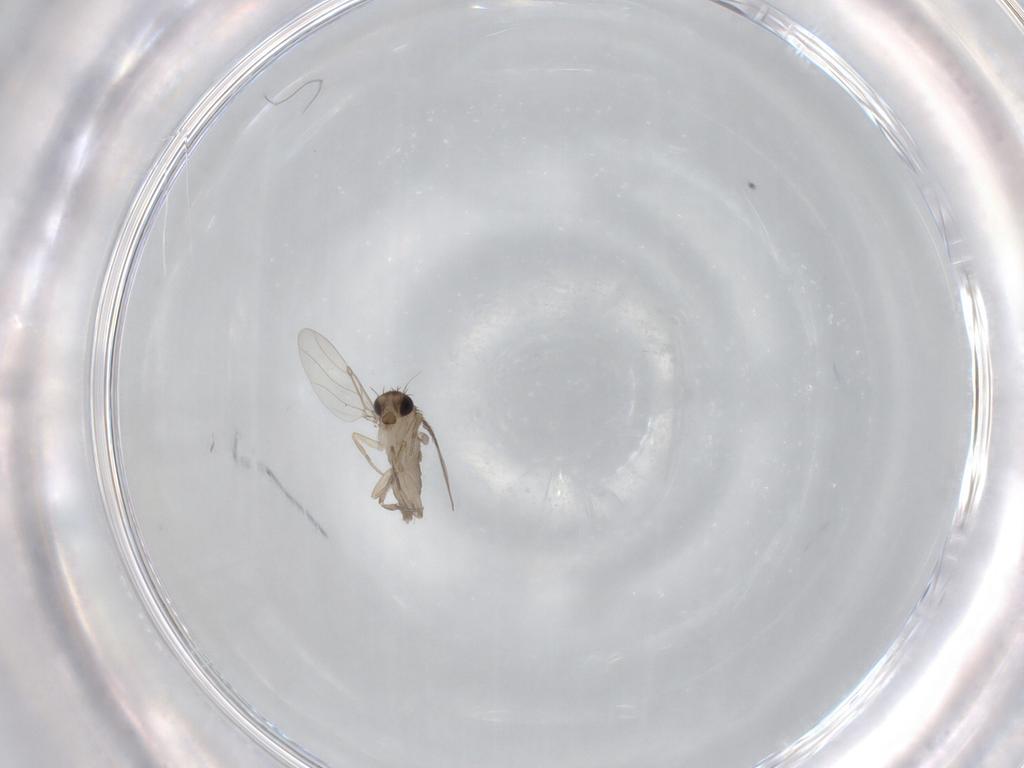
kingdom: Animalia
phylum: Arthropoda
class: Insecta
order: Diptera
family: Phoridae
